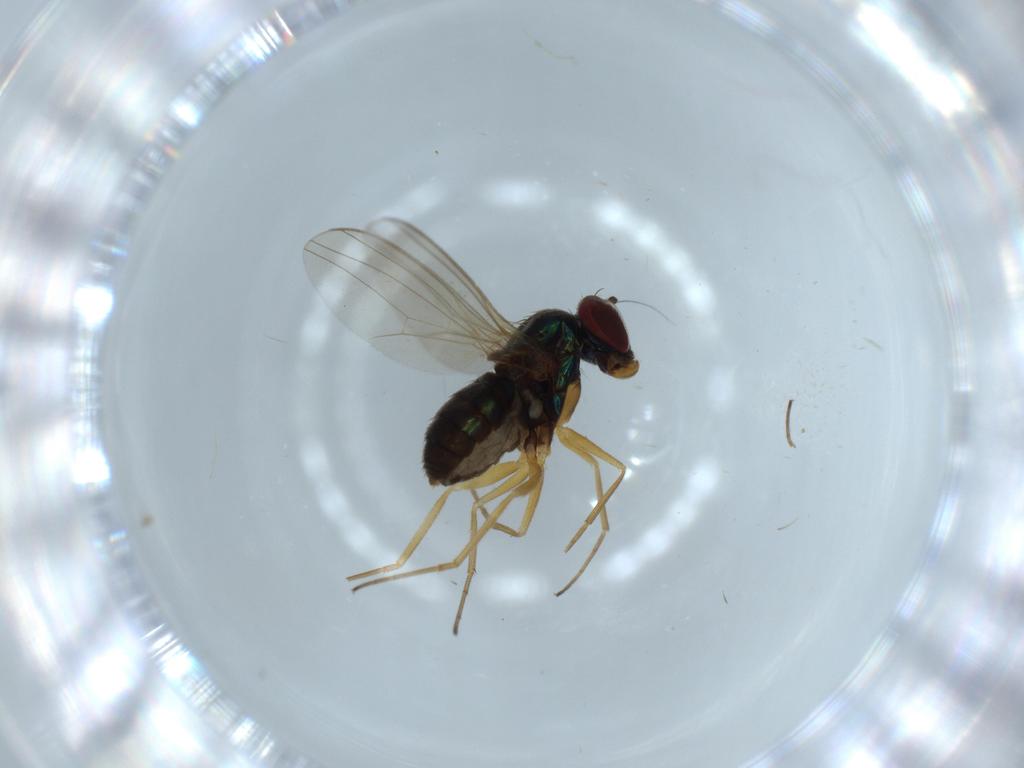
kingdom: Animalia
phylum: Arthropoda
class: Insecta
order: Diptera
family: Dolichopodidae
